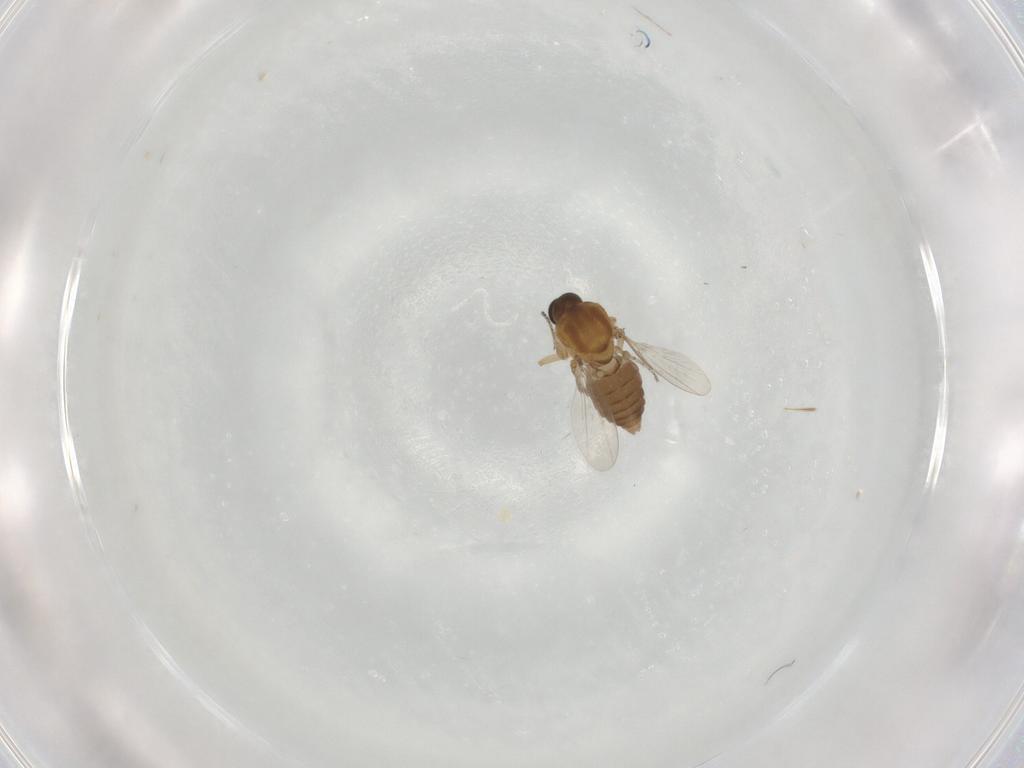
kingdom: Animalia
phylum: Arthropoda
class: Insecta
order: Diptera
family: Ceratopogonidae
